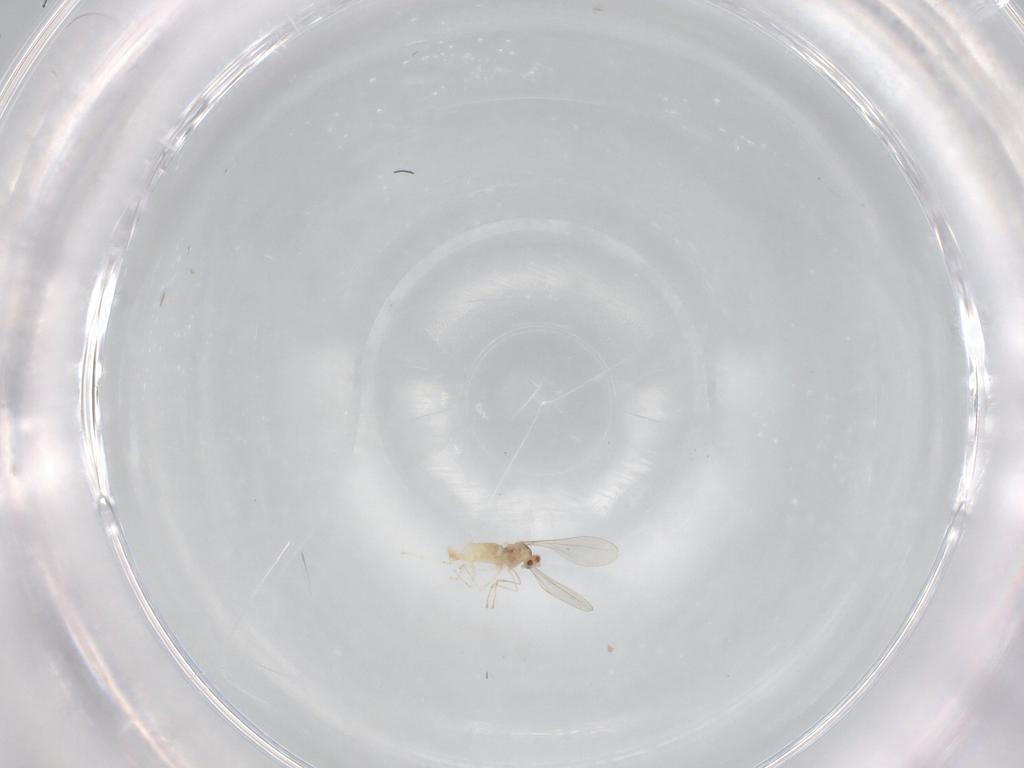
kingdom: Animalia
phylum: Arthropoda
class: Insecta
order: Diptera
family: Cecidomyiidae
